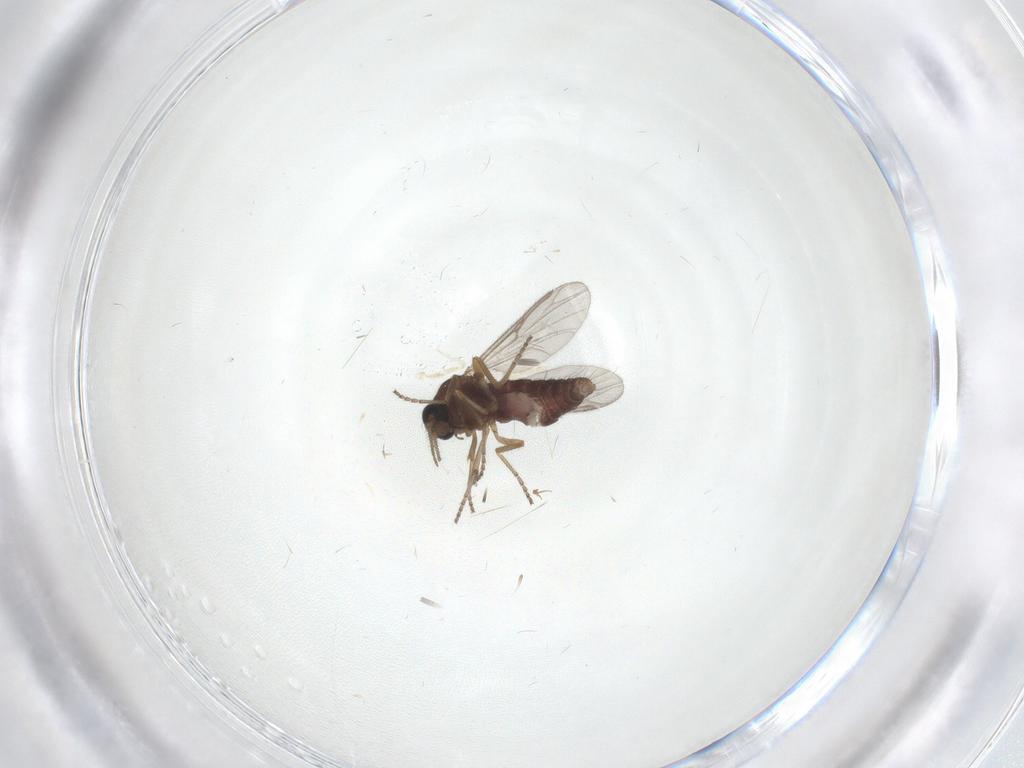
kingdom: Animalia
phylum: Arthropoda
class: Insecta
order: Diptera
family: Ceratopogonidae
